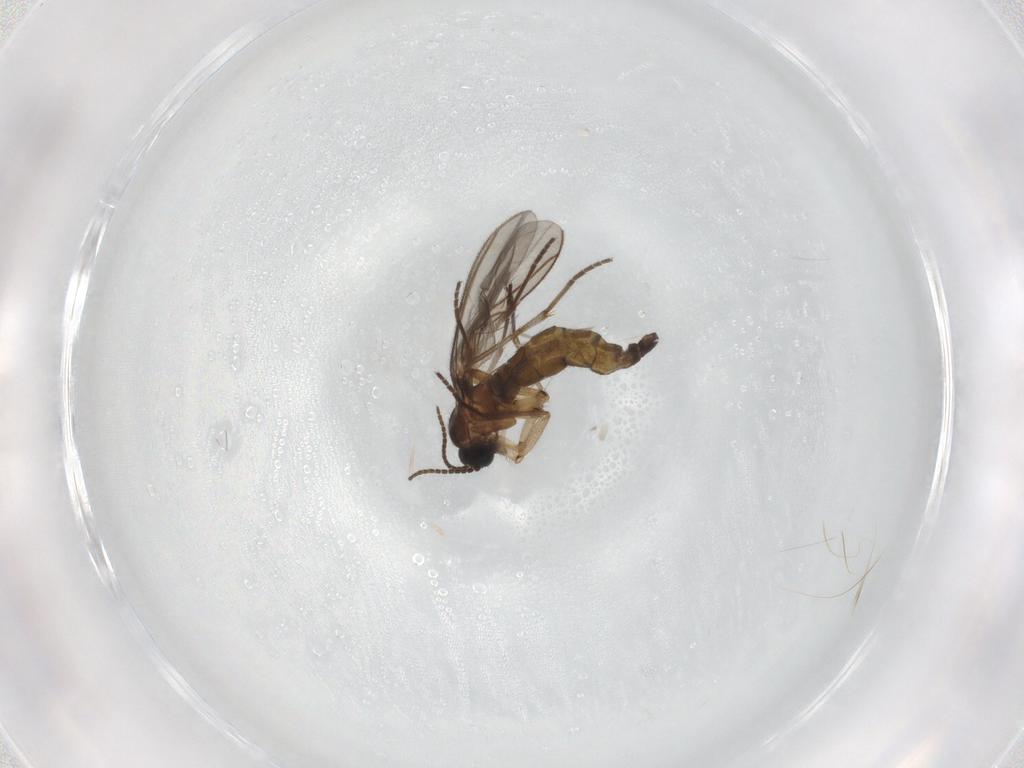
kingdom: Animalia
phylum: Arthropoda
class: Insecta
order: Diptera
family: Sciaridae
